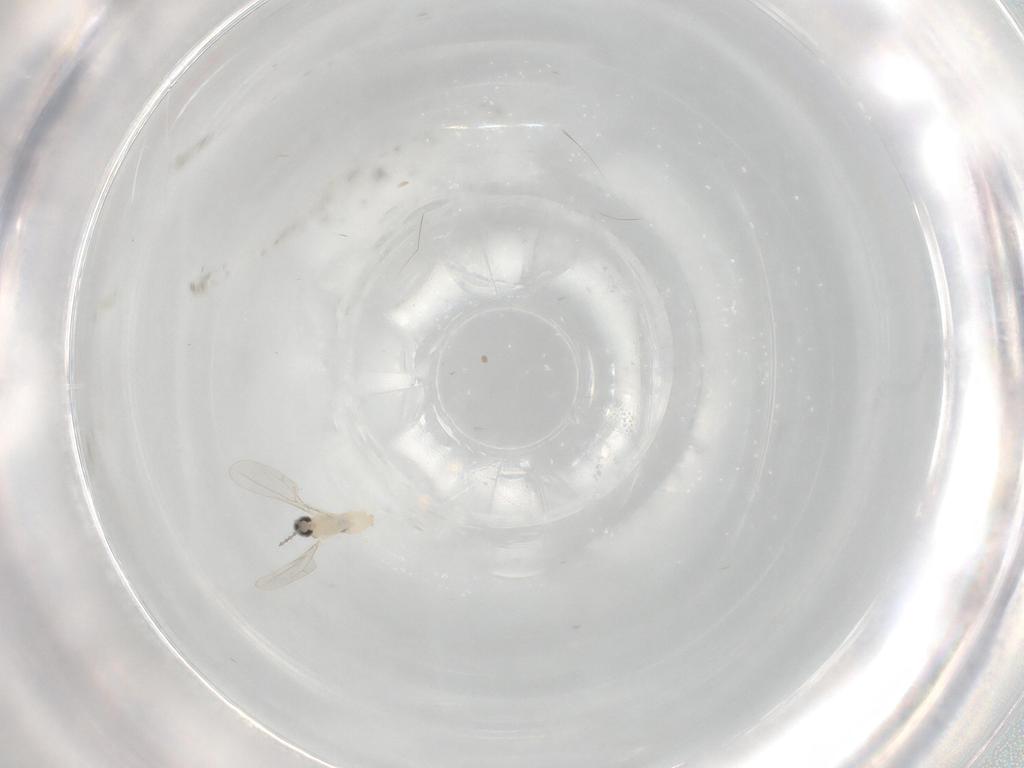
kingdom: Animalia
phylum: Arthropoda
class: Insecta
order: Diptera
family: Cecidomyiidae
